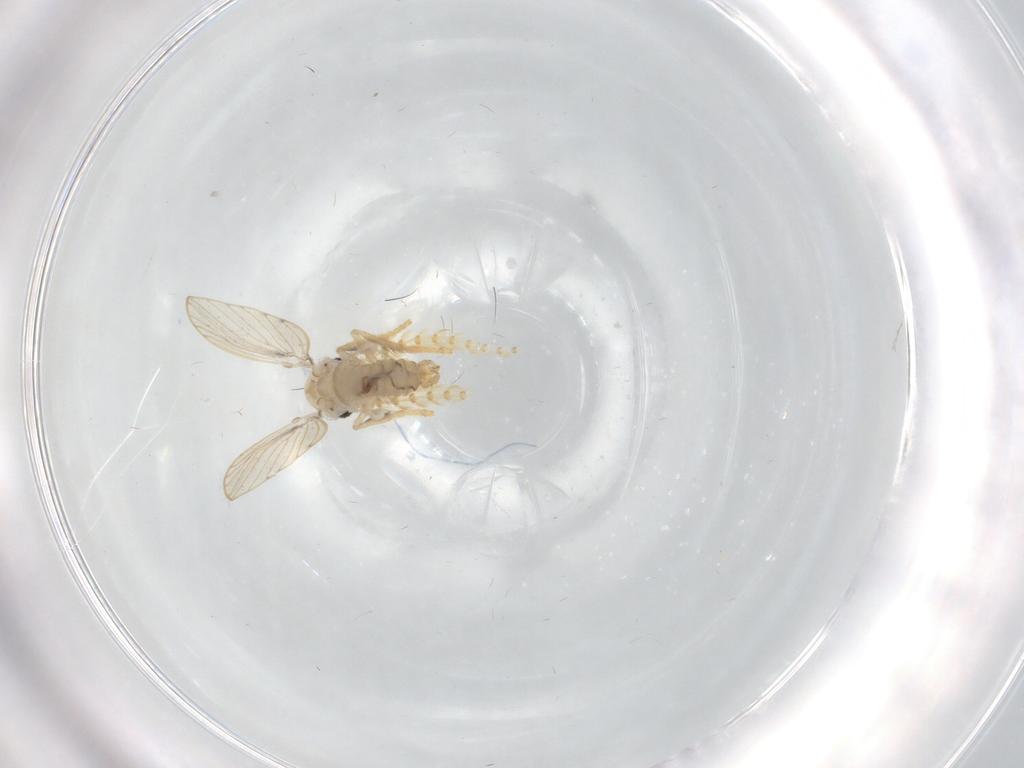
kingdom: Animalia
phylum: Arthropoda
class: Insecta
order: Diptera
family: Psychodidae
